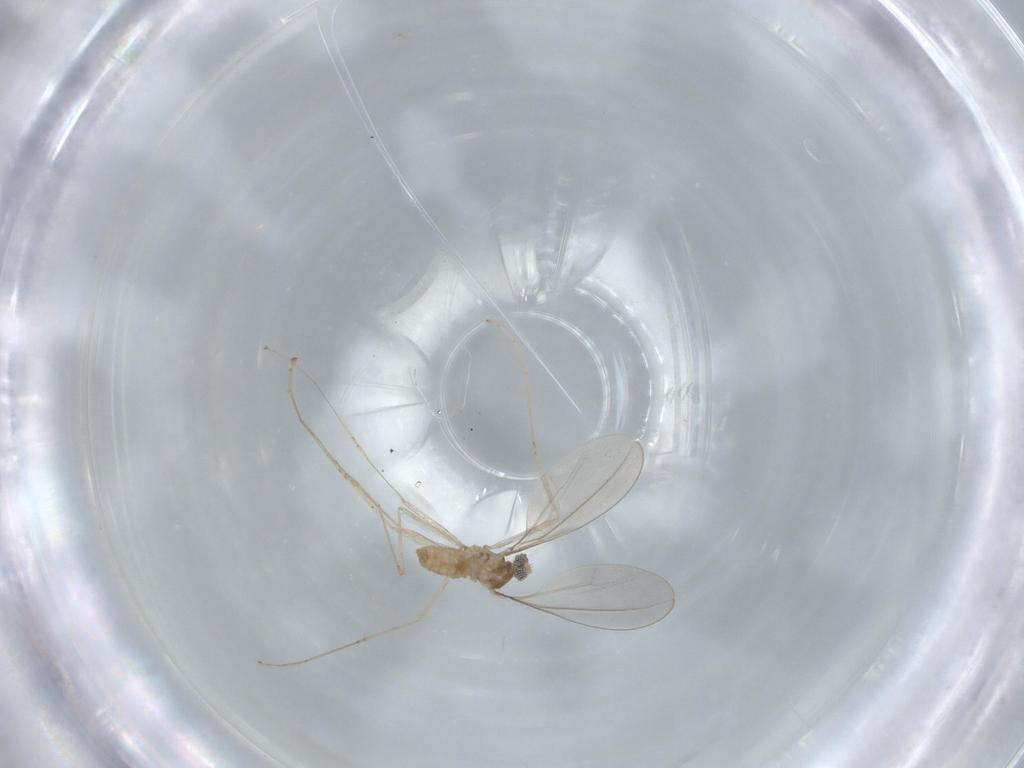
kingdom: Animalia
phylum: Arthropoda
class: Insecta
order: Diptera
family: Cecidomyiidae
